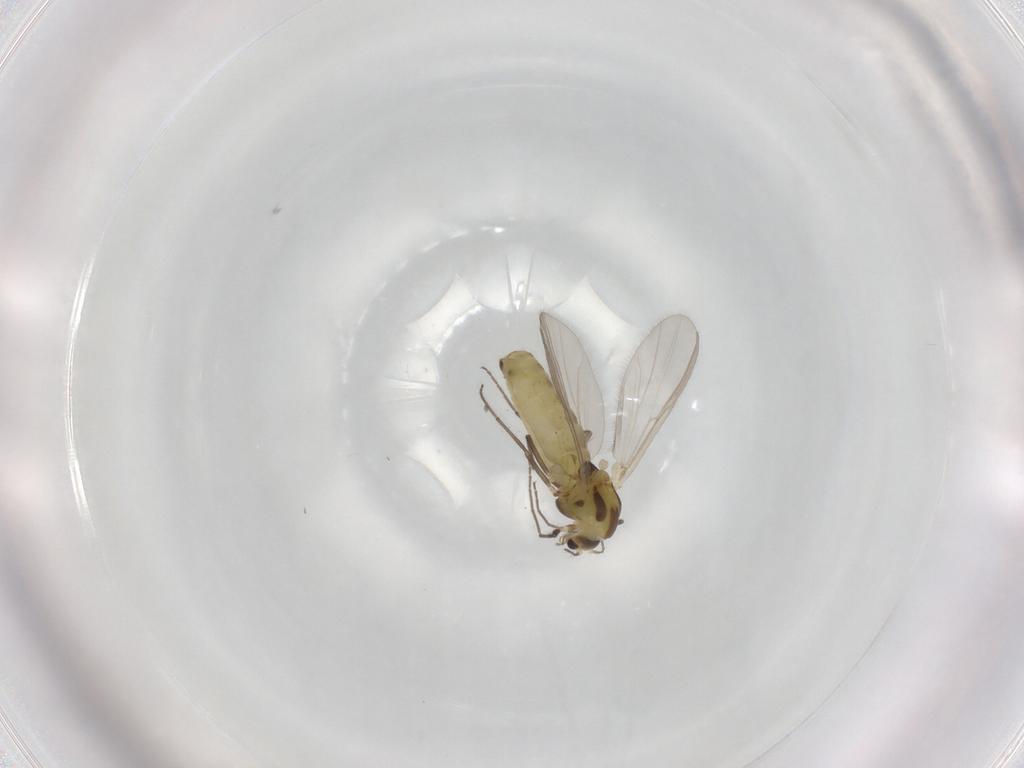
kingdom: Animalia
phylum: Arthropoda
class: Insecta
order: Diptera
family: Chironomidae
